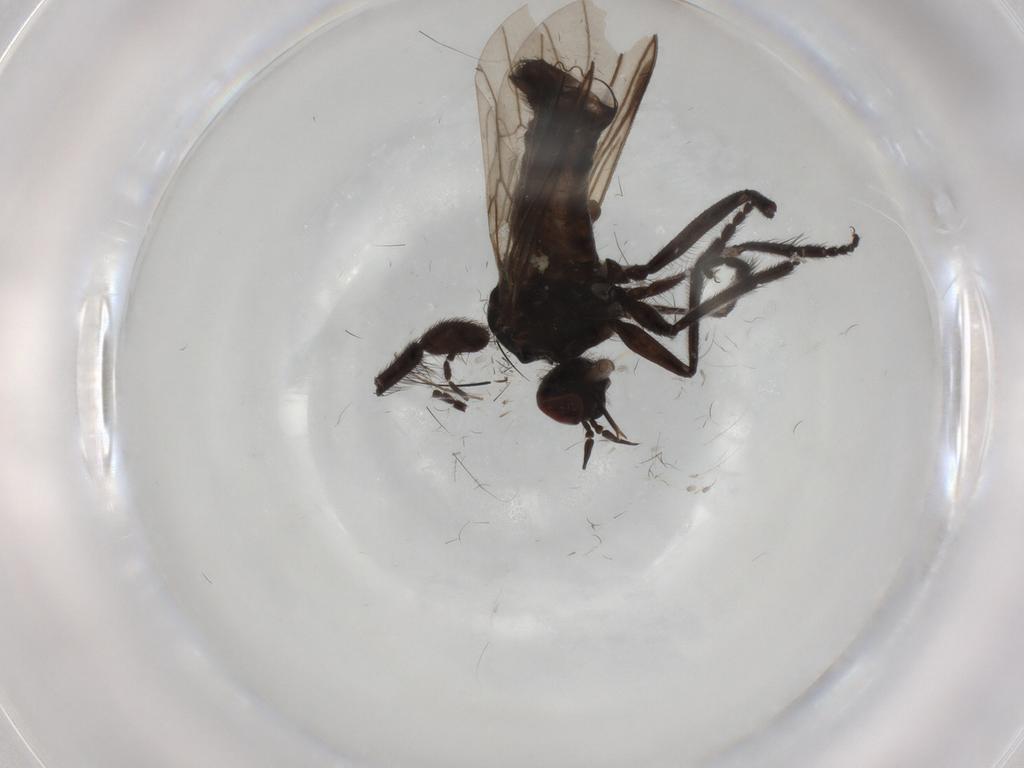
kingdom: Animalia
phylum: Arthropoda
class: Insecta
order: Diptera
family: Empididae
